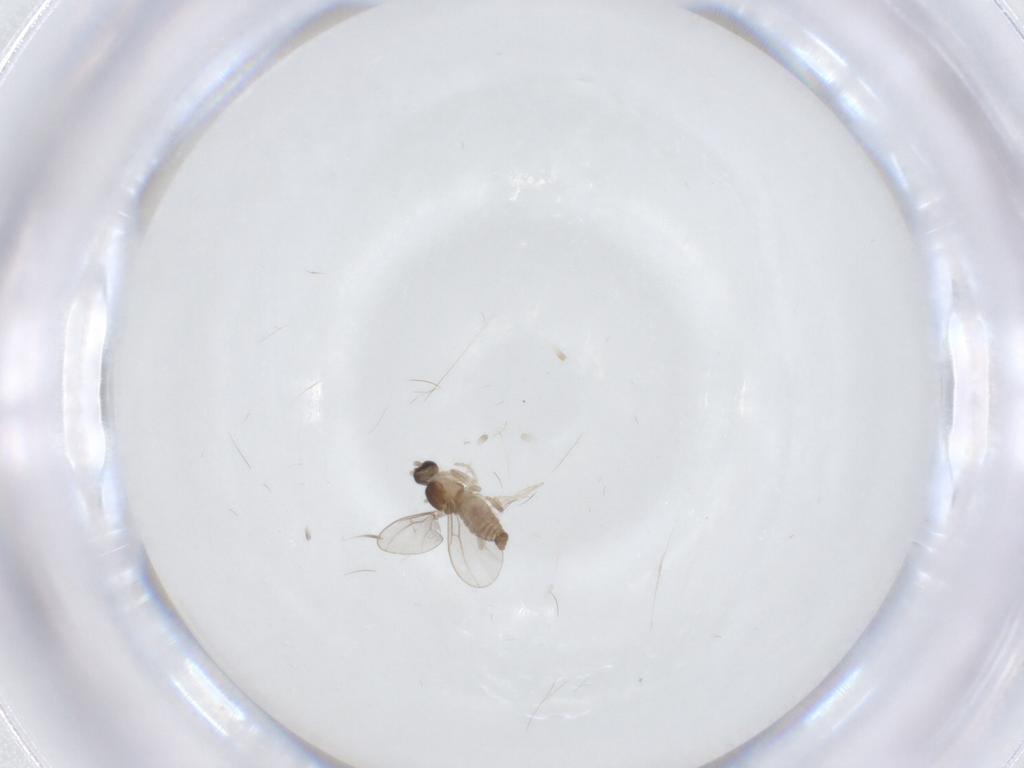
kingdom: Animalia
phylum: Arthropoda
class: Insecta
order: Diptera
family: Cecidomyiidae
